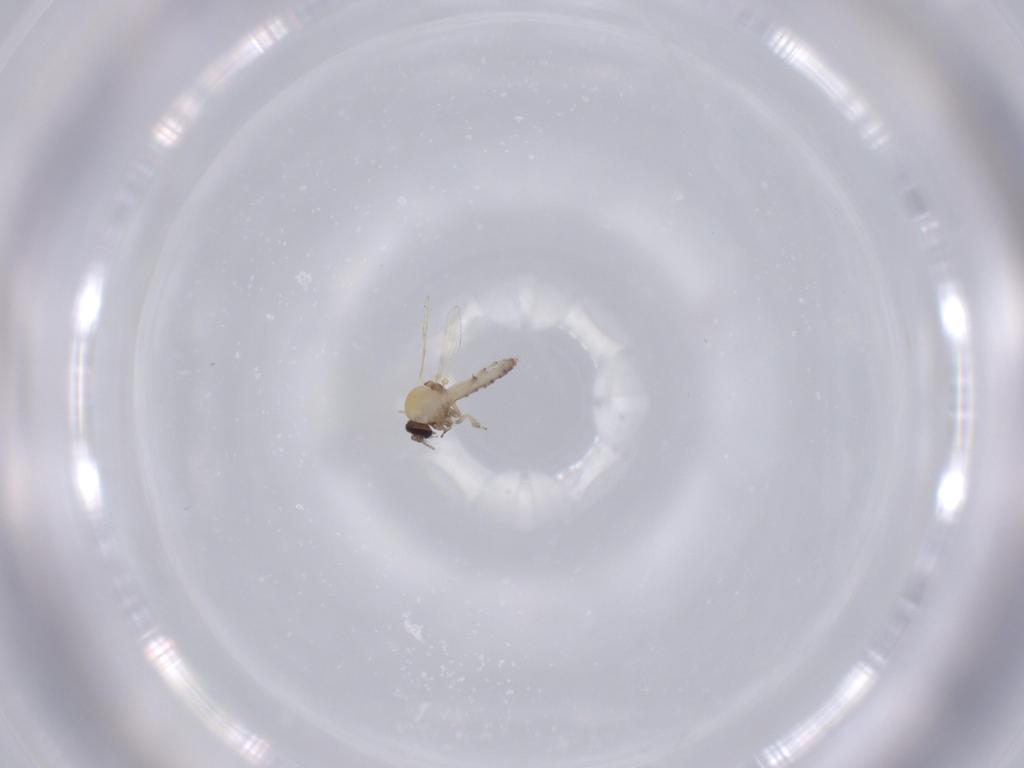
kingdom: Animalia
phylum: Arthropoda
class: Insecta
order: Diptera
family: Ceratopogonidae
